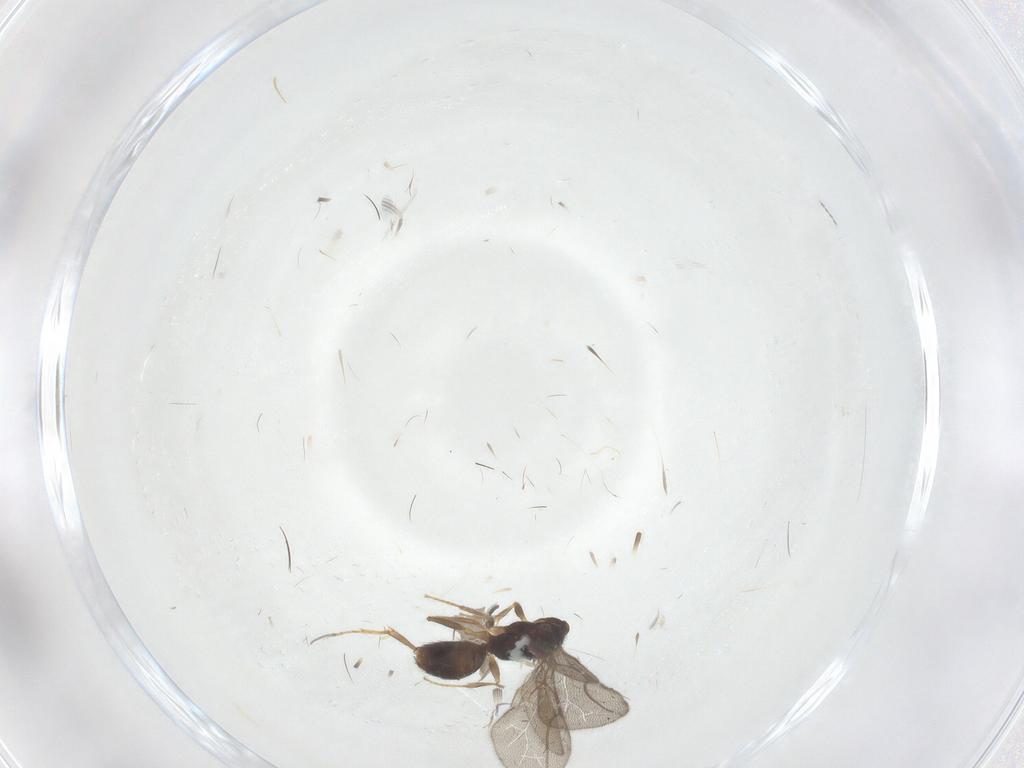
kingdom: Animalia
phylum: Arthropoda
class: Insecta
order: Hymenoptera
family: Bethylidae
